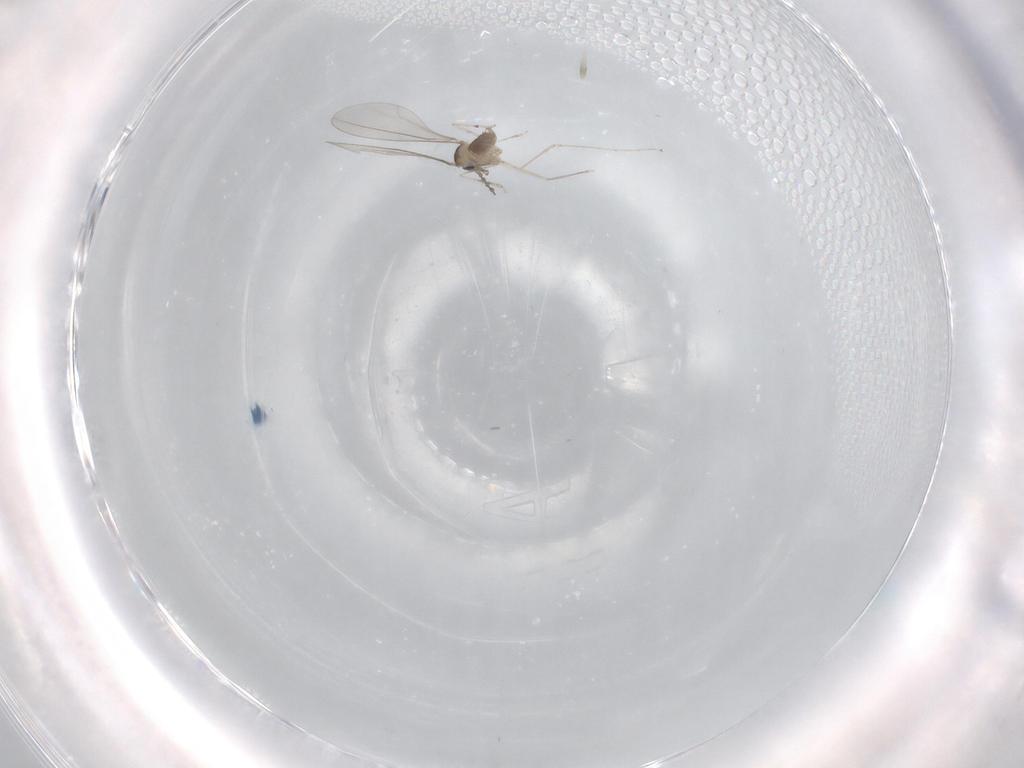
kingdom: Animalia
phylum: Arthropoda
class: Insecta
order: Diptera
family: Cecidomyiidae
